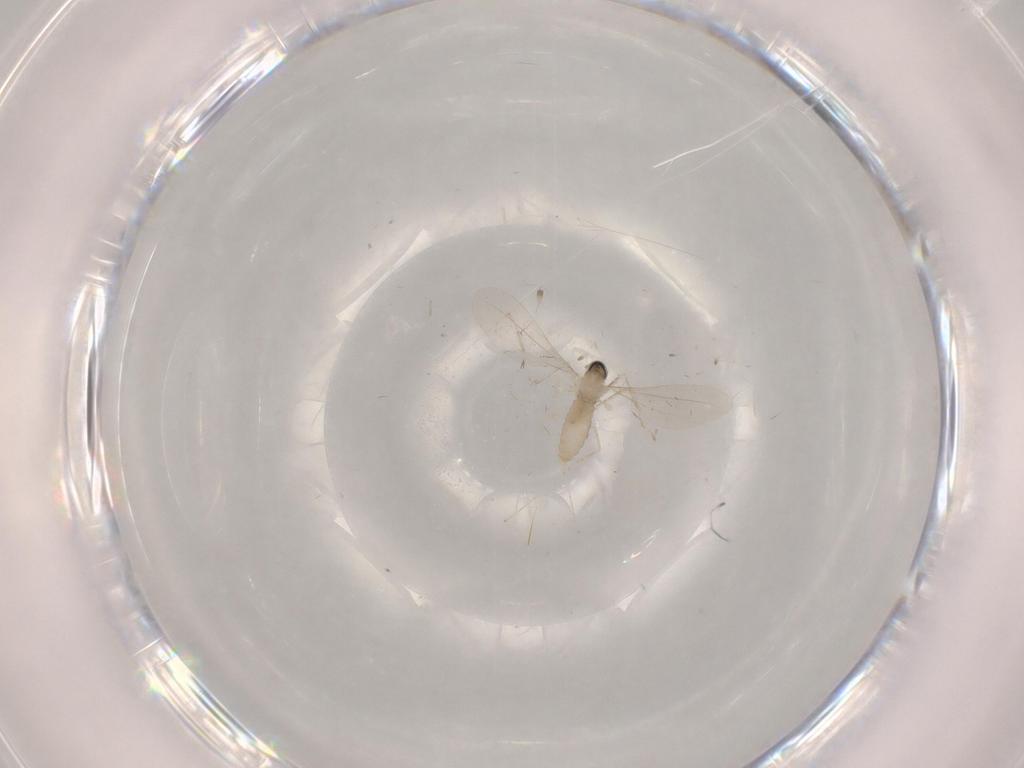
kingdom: Animalia
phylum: Arthropoda
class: Insecta
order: Diptera
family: Cecidomyiidae
